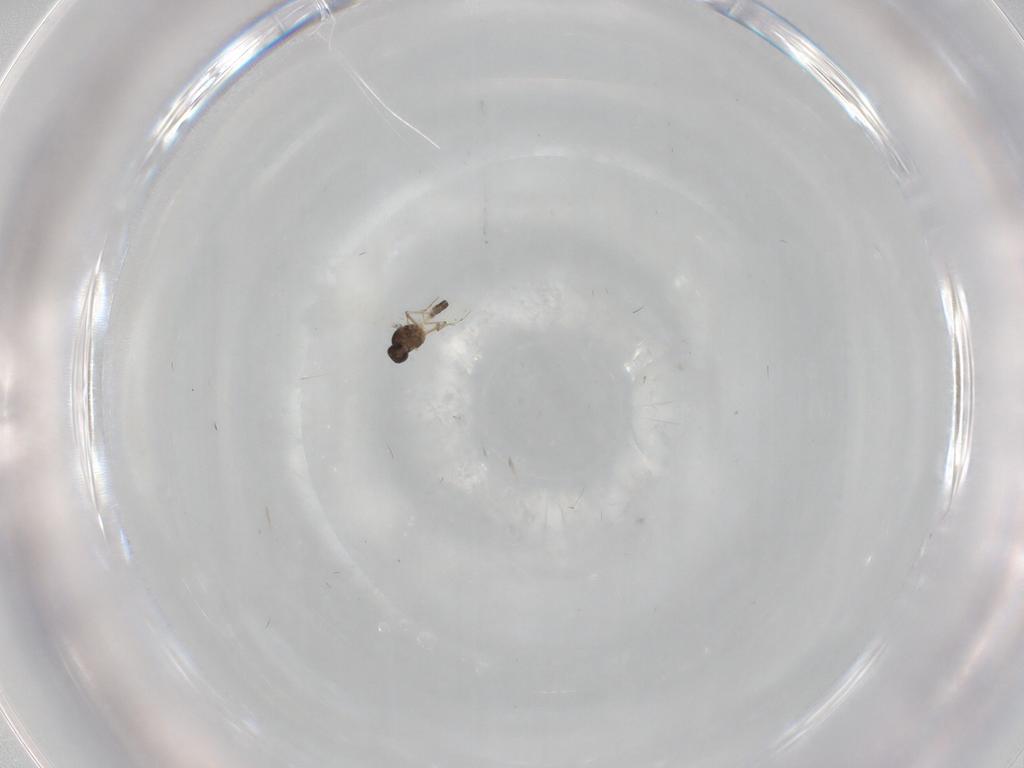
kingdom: Animalia
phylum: Arthropoda
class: Insecta
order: Diptera
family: Ceratopogonidae
